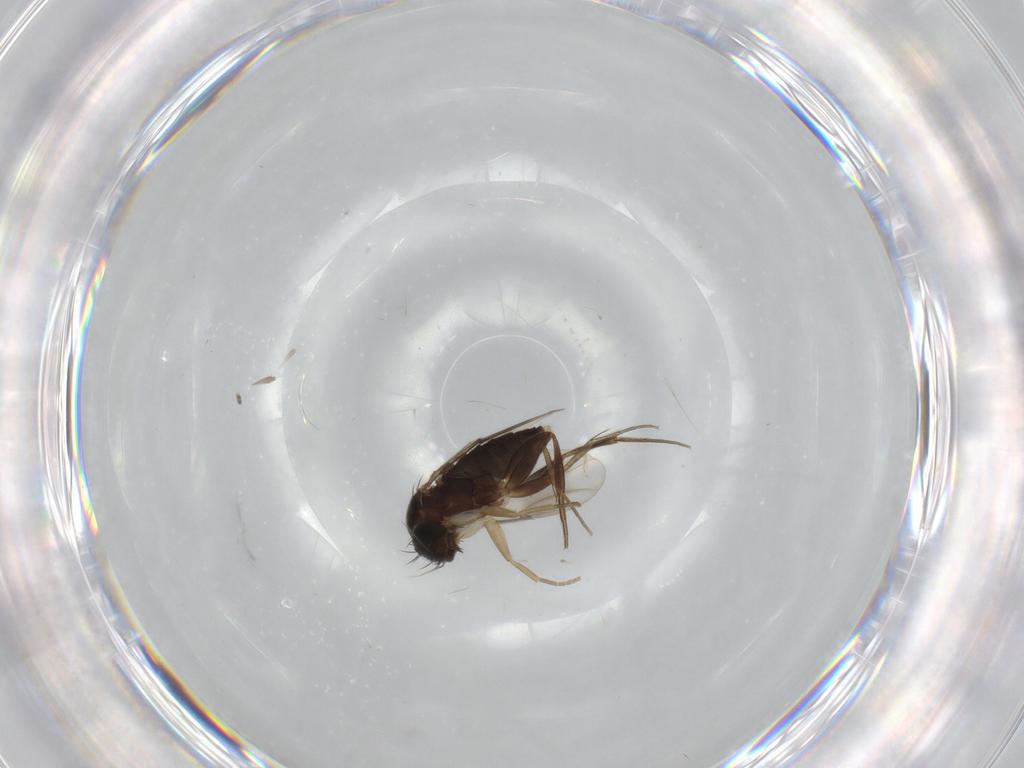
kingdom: Animalia
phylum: Arthropoda
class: Insecta
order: Diptera
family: Phoridae
